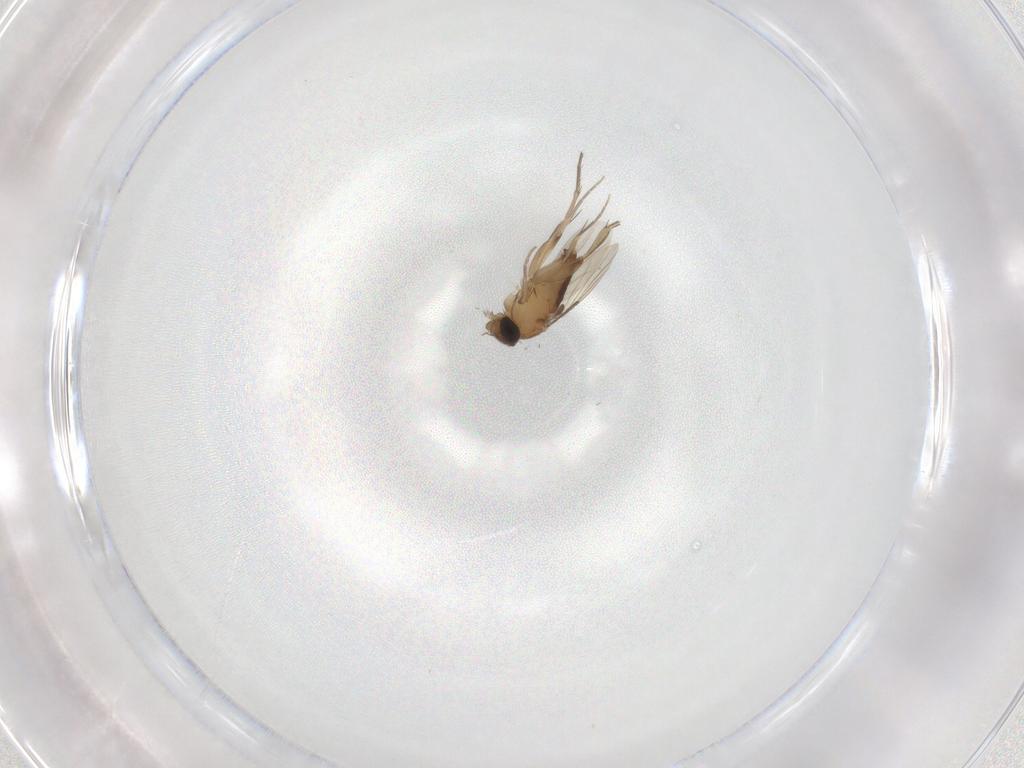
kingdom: Animalia
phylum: Arthropoda
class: Insecta
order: Diptera
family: Phoridae
